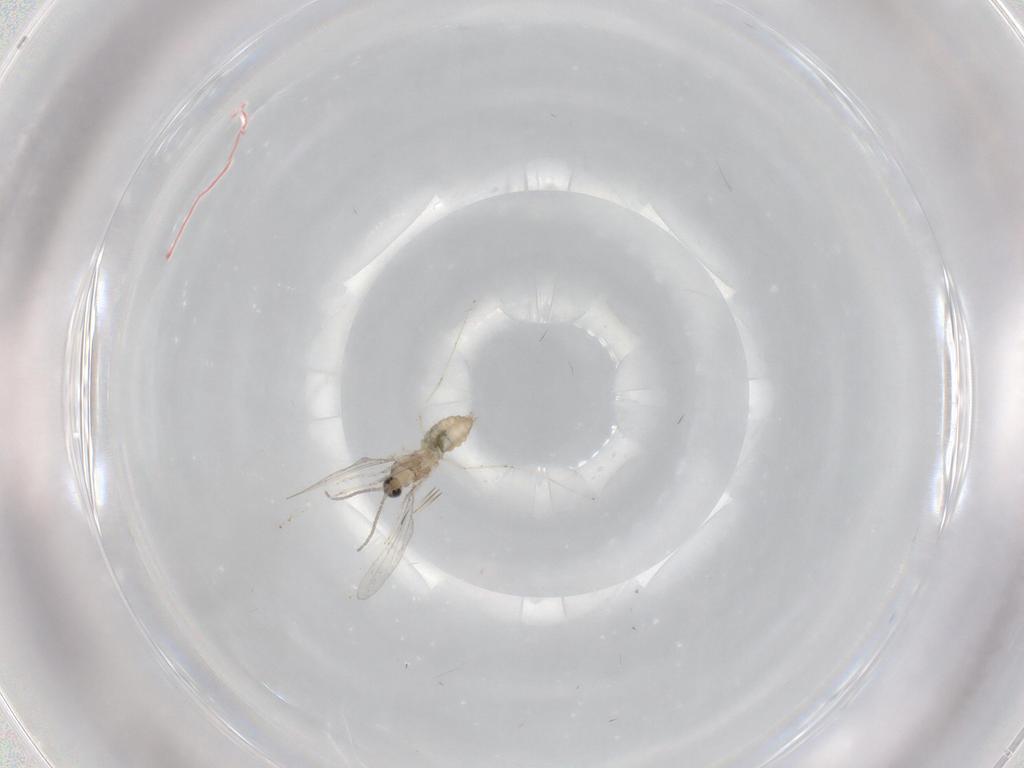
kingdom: Animalia
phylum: Arthropoda
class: Insecta
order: Diptera
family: Cecidomyiidae
